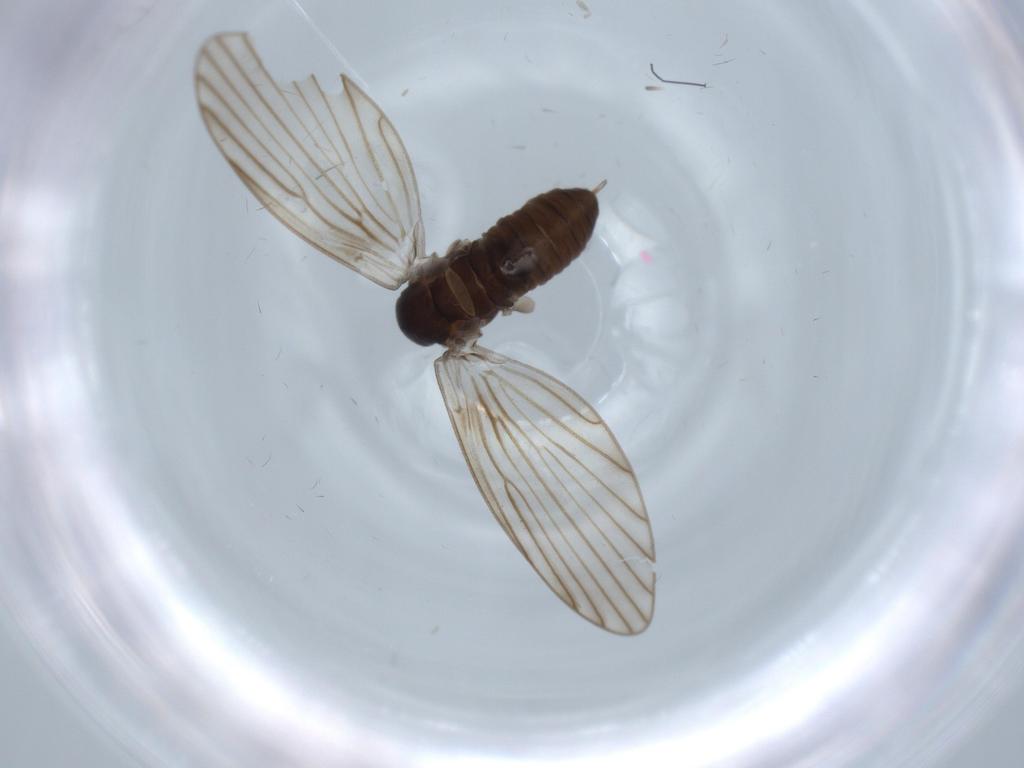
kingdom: Animalia
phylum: Arthropoda
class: Insecta
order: Diptera
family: Psychodidae
